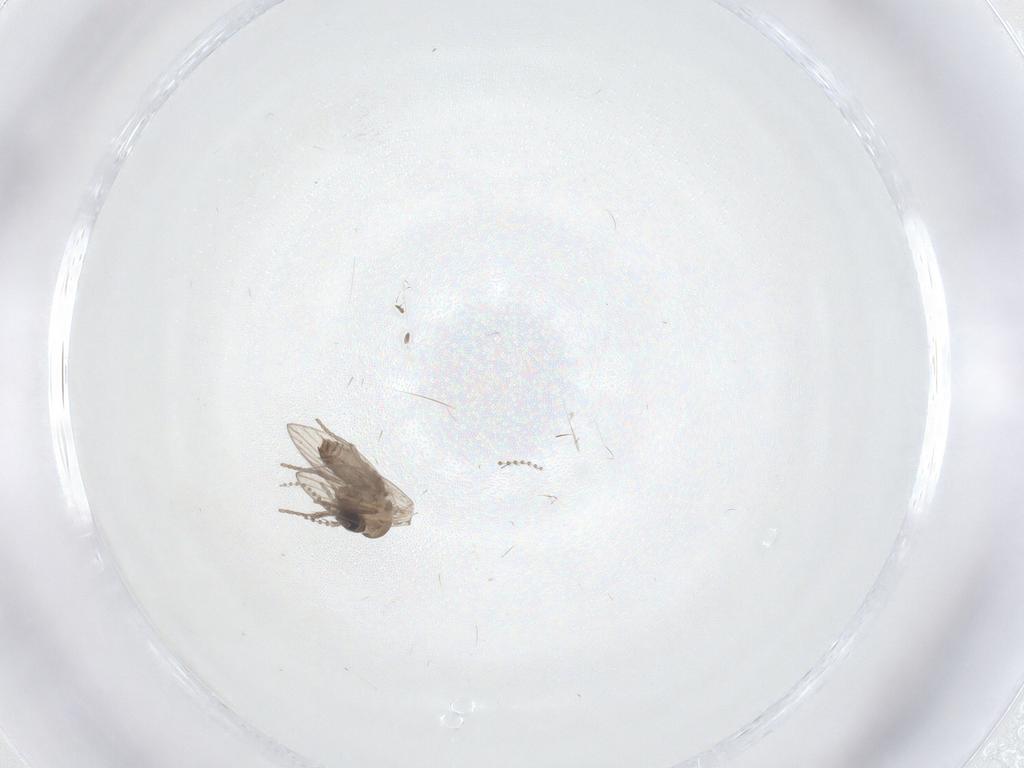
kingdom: Animalia
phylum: Arthropoda
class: Insecta
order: Diptera
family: Psychodidae
